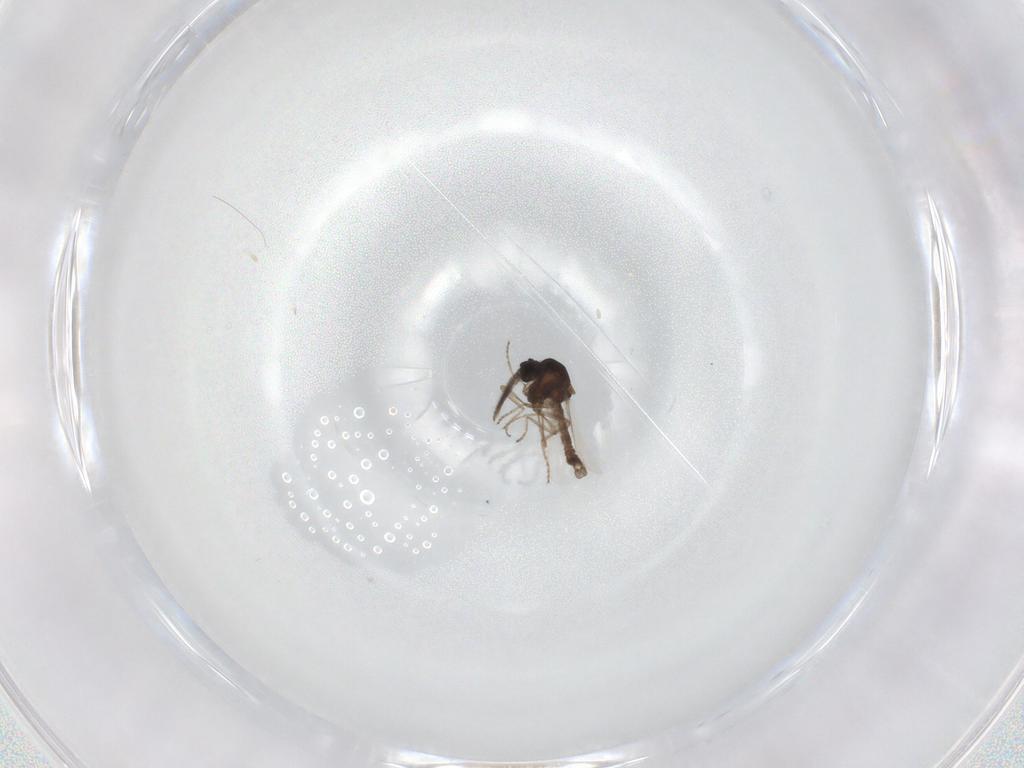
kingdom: Animalia
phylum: Arthropoda
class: Insecta
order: Diptera
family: Ceratopogonidae
